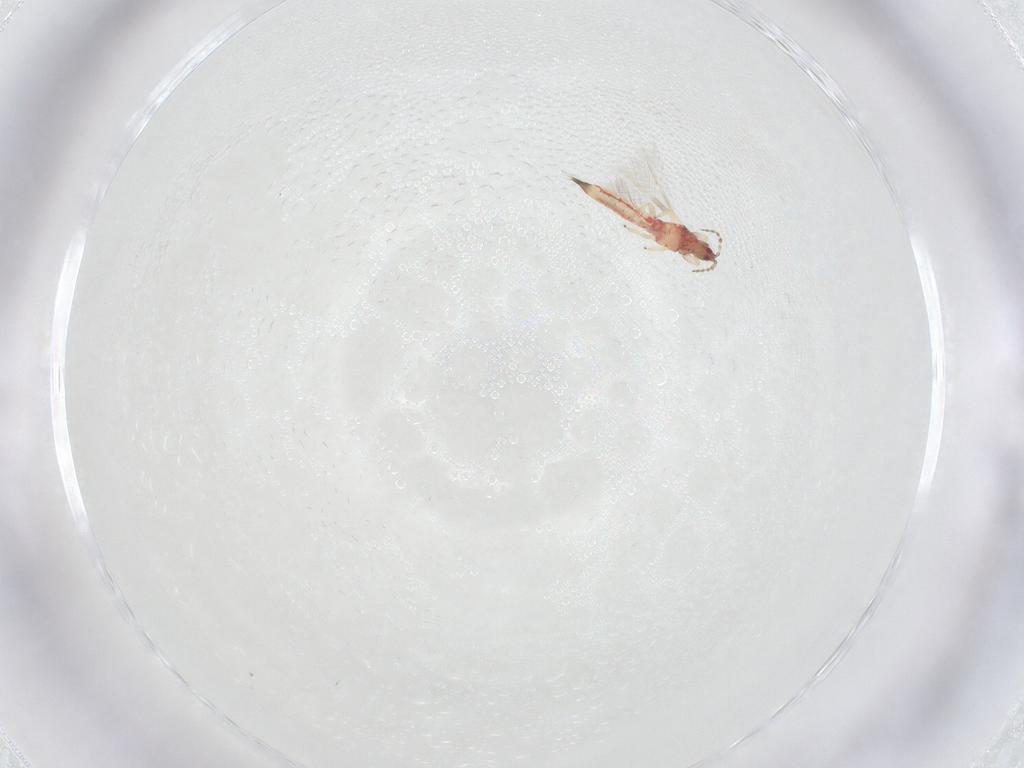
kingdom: Animalia
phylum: Arthropoda
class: Insecta
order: Thysanoptera
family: Phlaeothripidae
